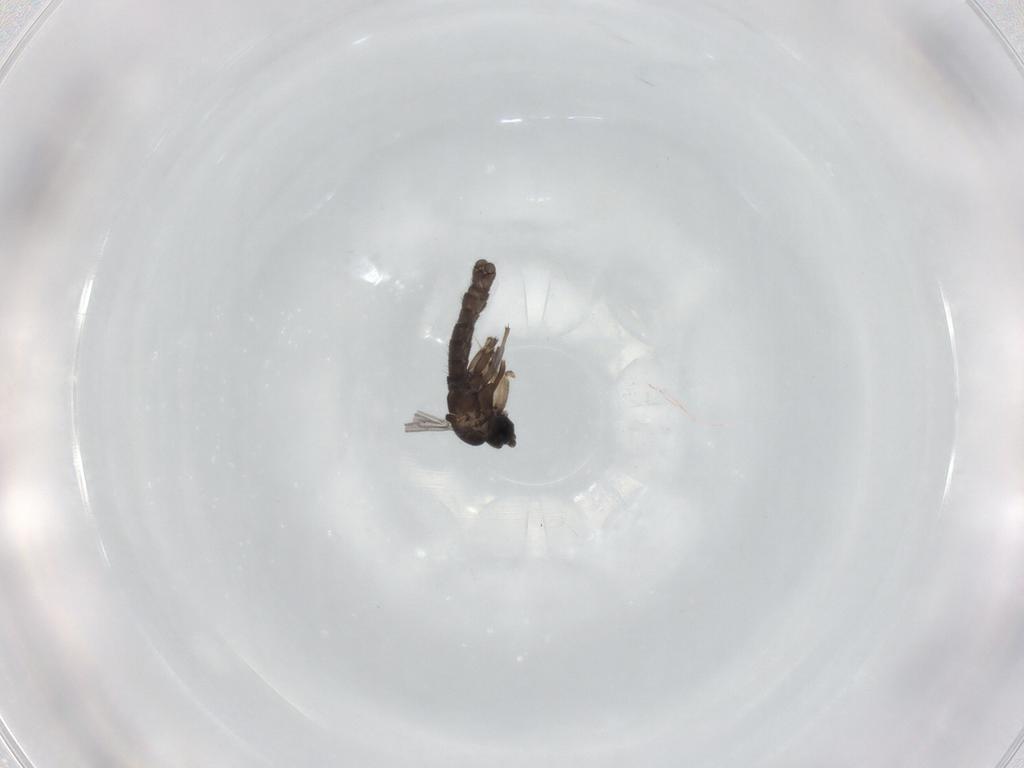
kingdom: Animalia
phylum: Arthropoda
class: Insecta
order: Diptera
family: Sciaridae
